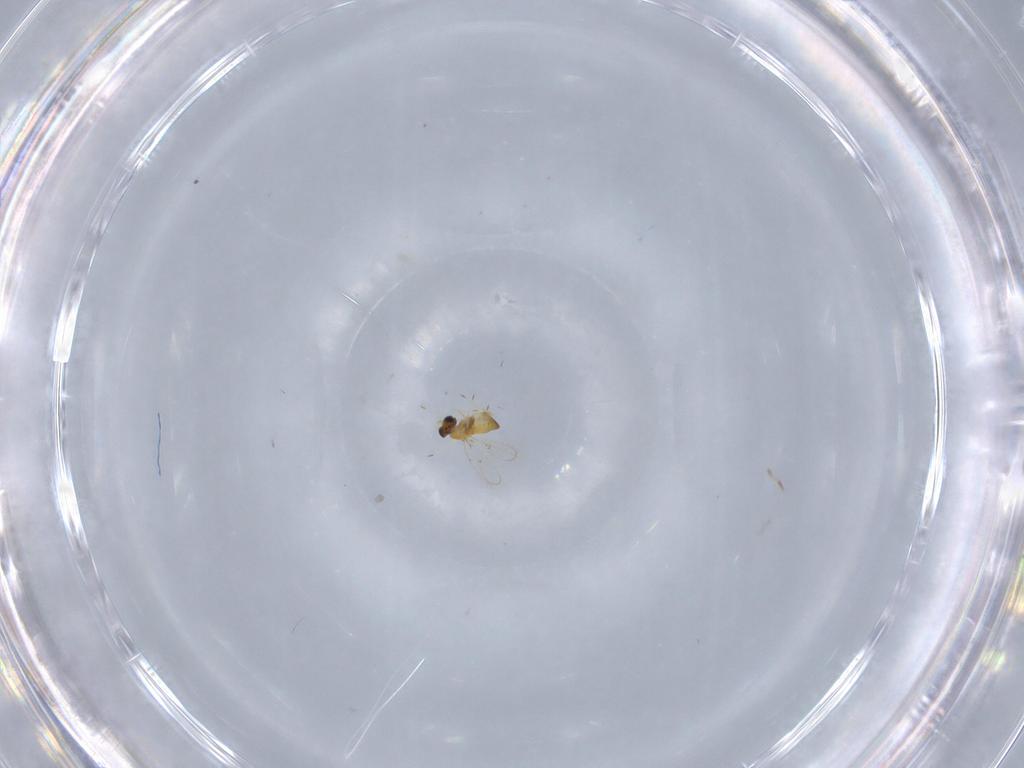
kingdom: Animalia
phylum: Arthropoda
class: Insecta
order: Hymenoptera
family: Trichogrammatidae
